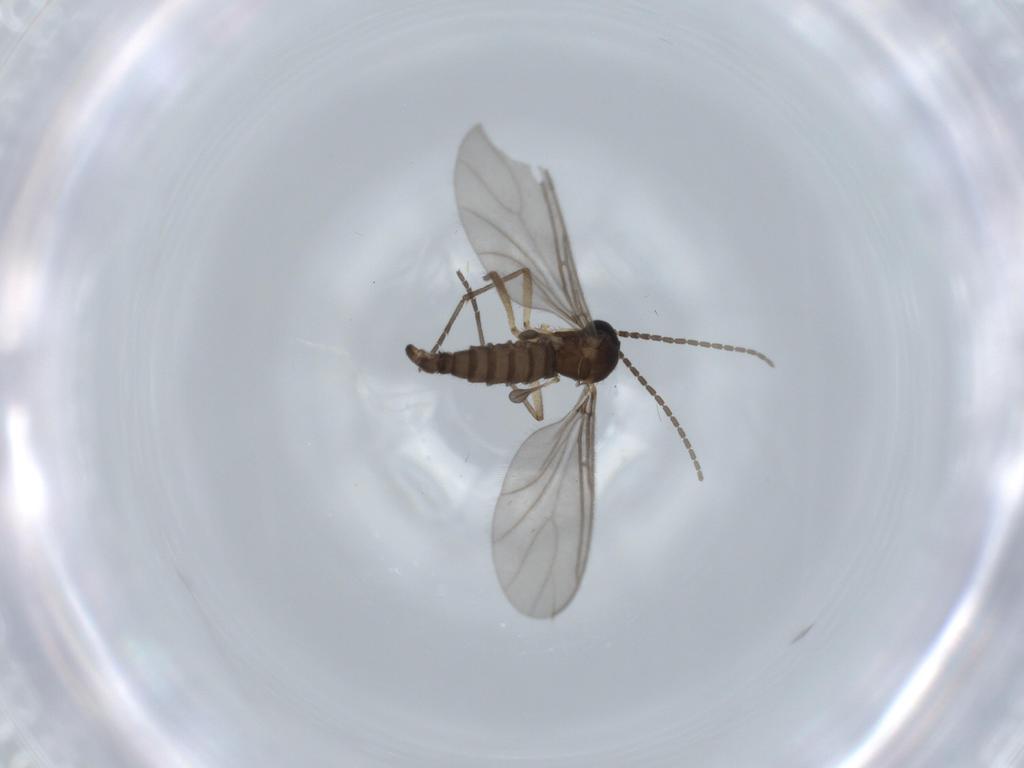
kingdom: Animalia
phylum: Arthropoda
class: Insecta
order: Diptera
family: Sciaridae
